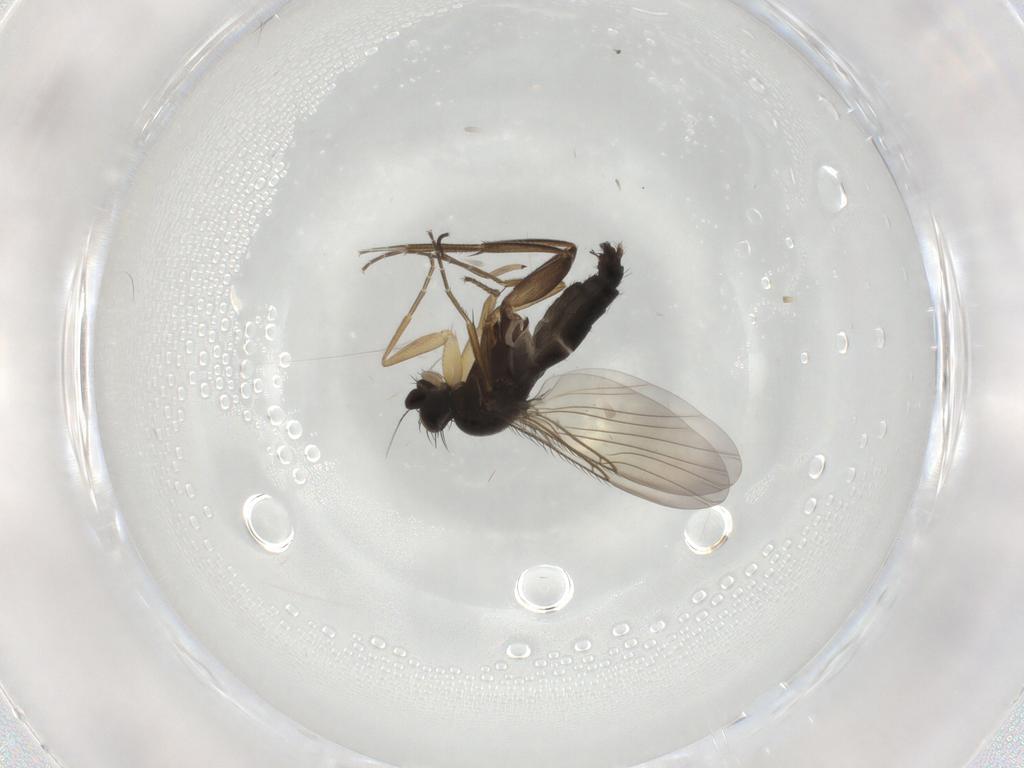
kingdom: Animalia
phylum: Arthropoda
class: Insecta
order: Diptera
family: Phoridae
